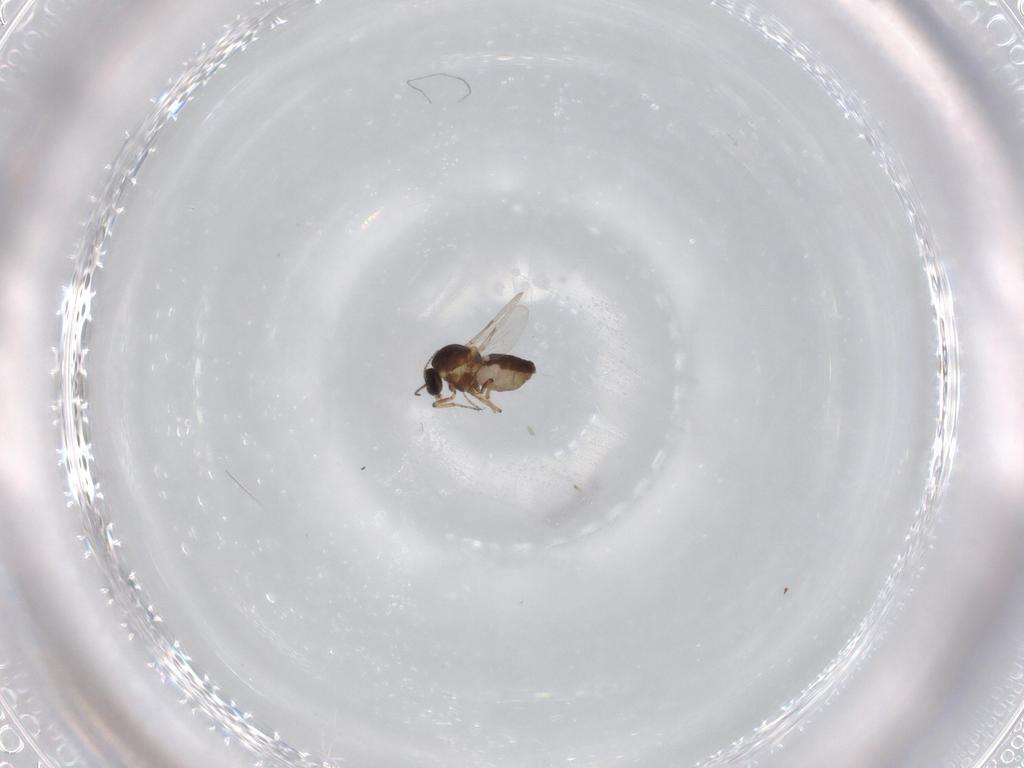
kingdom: Animalia
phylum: Arthropoda
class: Insecta
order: Diptera
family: Ceratopogonidae
